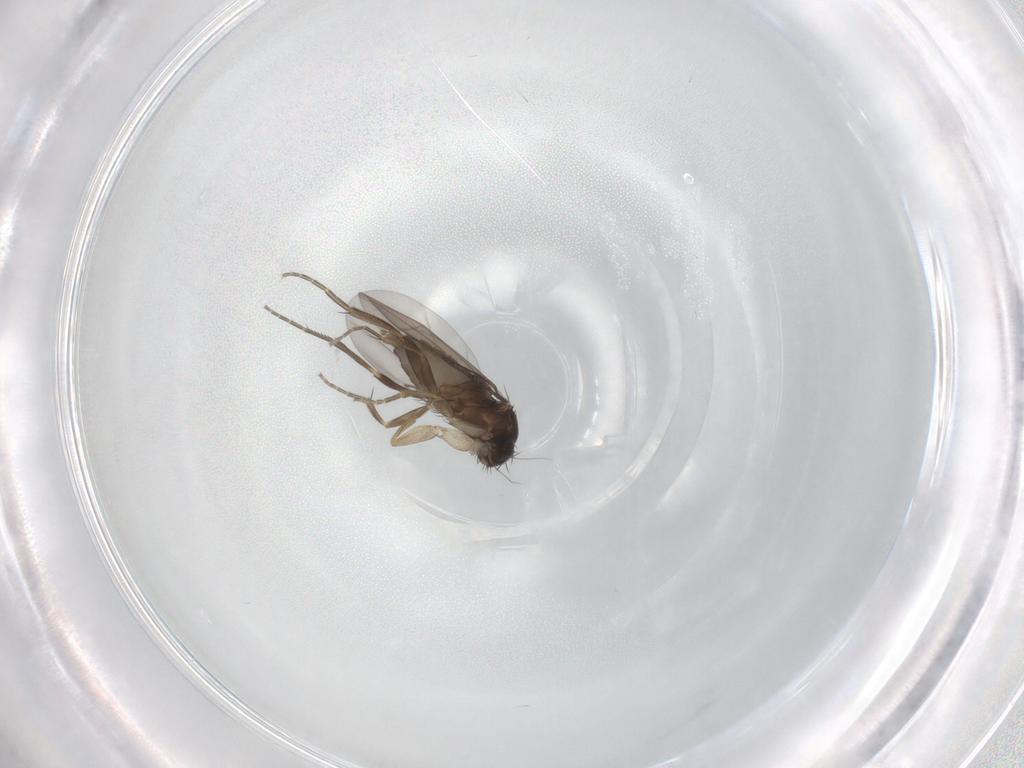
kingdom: Animalia
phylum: Arthropoda
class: Insecta
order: Diptera
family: Phoridae
